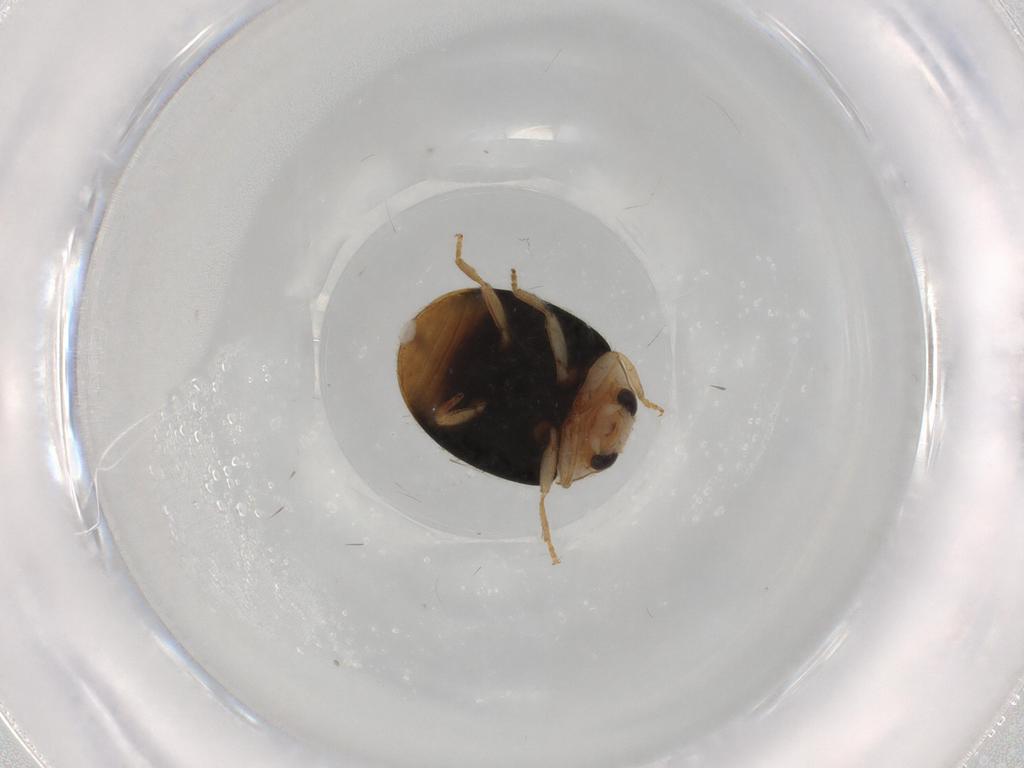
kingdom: Animalia
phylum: Arthropoda
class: Insecta
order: Coleoptera
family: Coccinellidae
